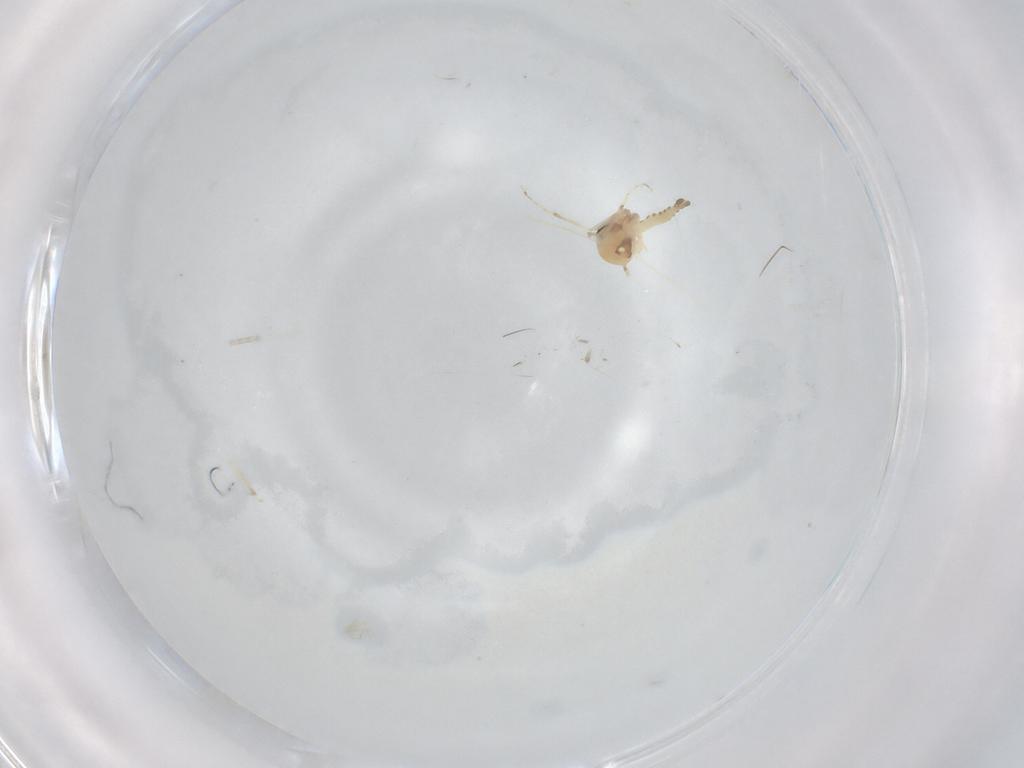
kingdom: Animalia
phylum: Arthropoda
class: Insecta
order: Diptera
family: Ceratopogonidae
